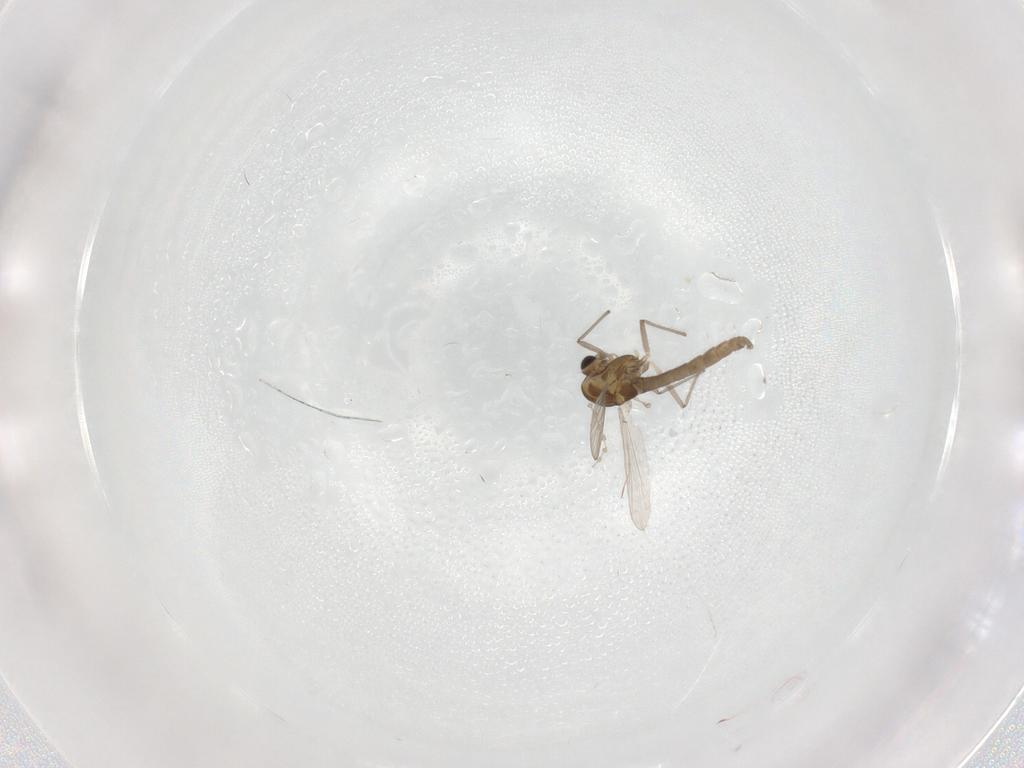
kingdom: Animalia
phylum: Arthropoda
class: Insecta
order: Diptera
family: Chironomidae
